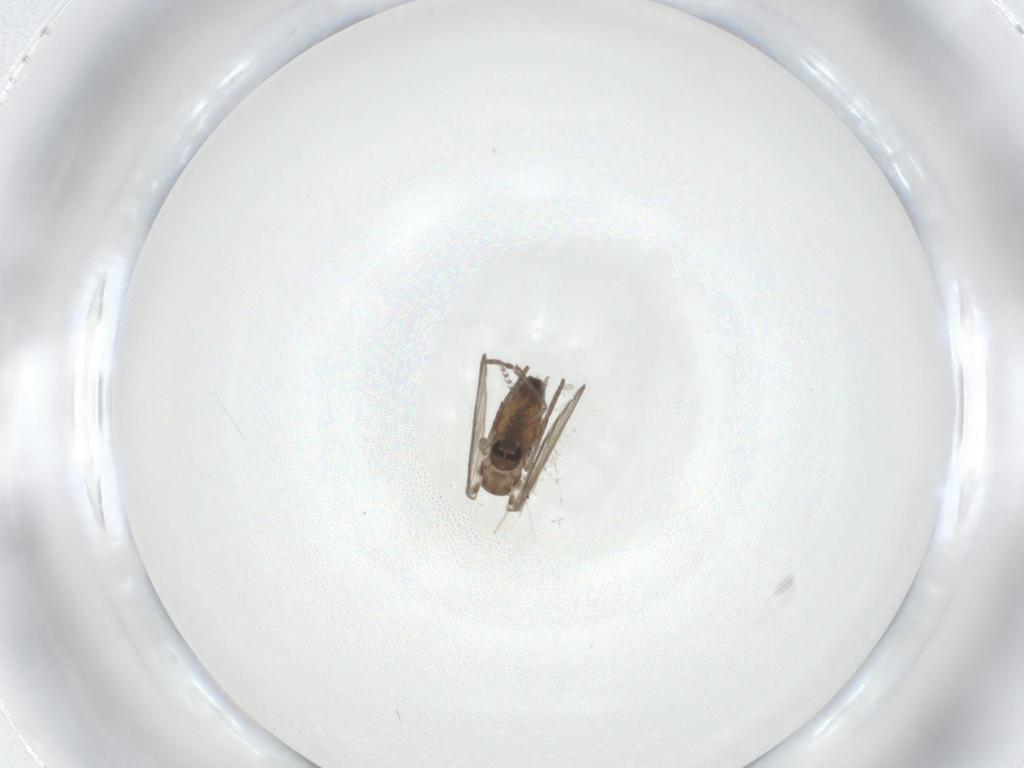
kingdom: Animalia
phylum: Arthropoda
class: Insecta
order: Diptera
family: Psychodidae
